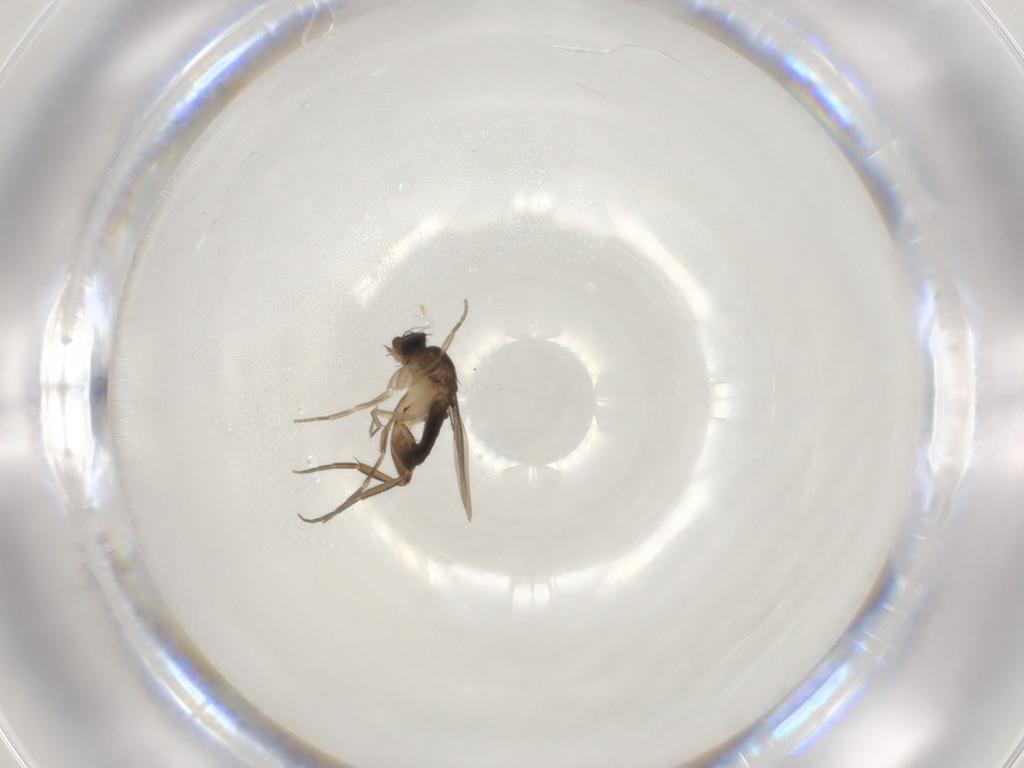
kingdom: Animalia
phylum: Arthropoda
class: Insecta
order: Diptera
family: Phoridae
